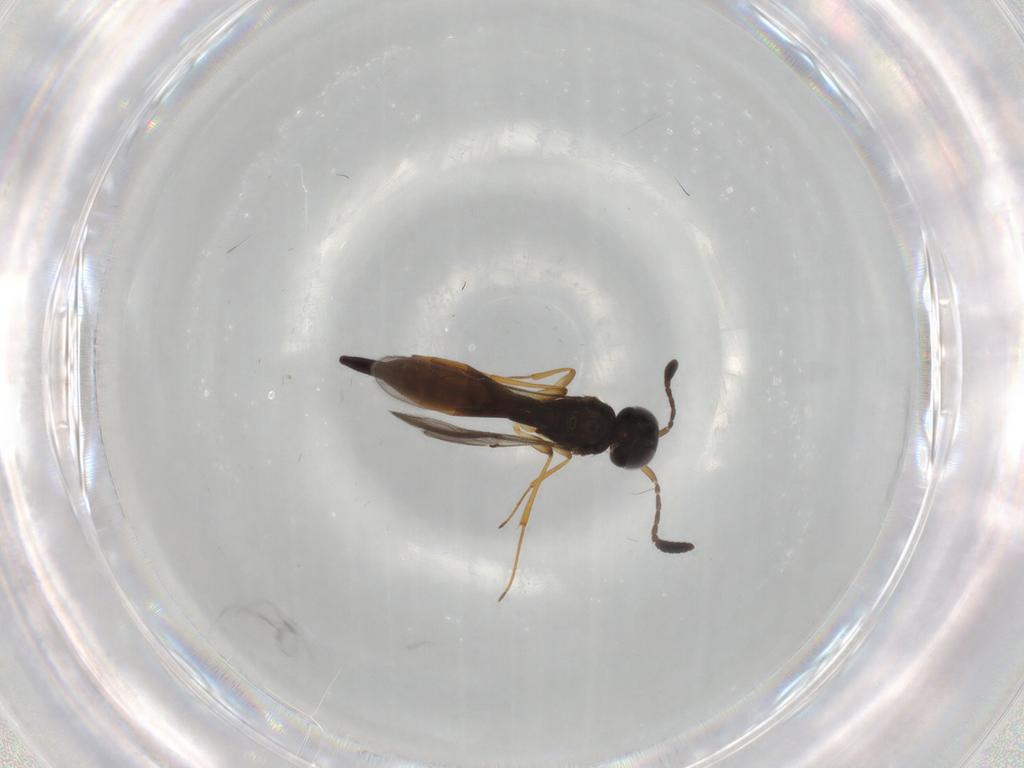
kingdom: Animalia
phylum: Arthropoda
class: Insecta
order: Hymenoptera
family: Scelionidae
